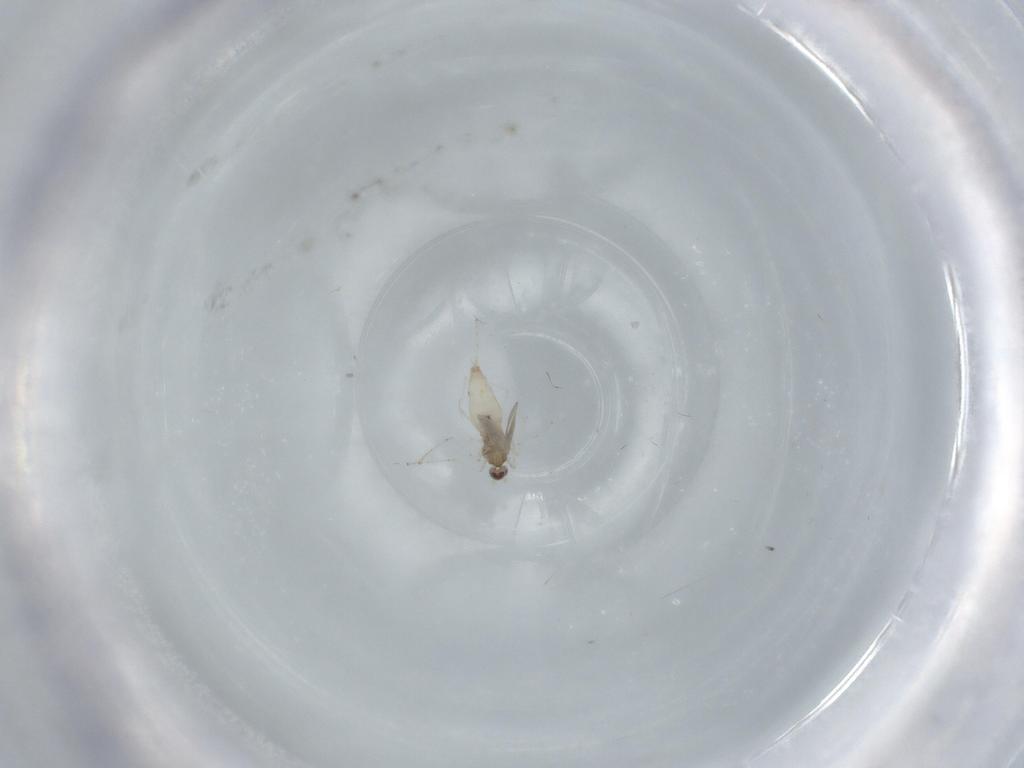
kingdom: Animalia
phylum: Arthropoda
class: Insecta
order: Diptera
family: Cecidomyiidae
